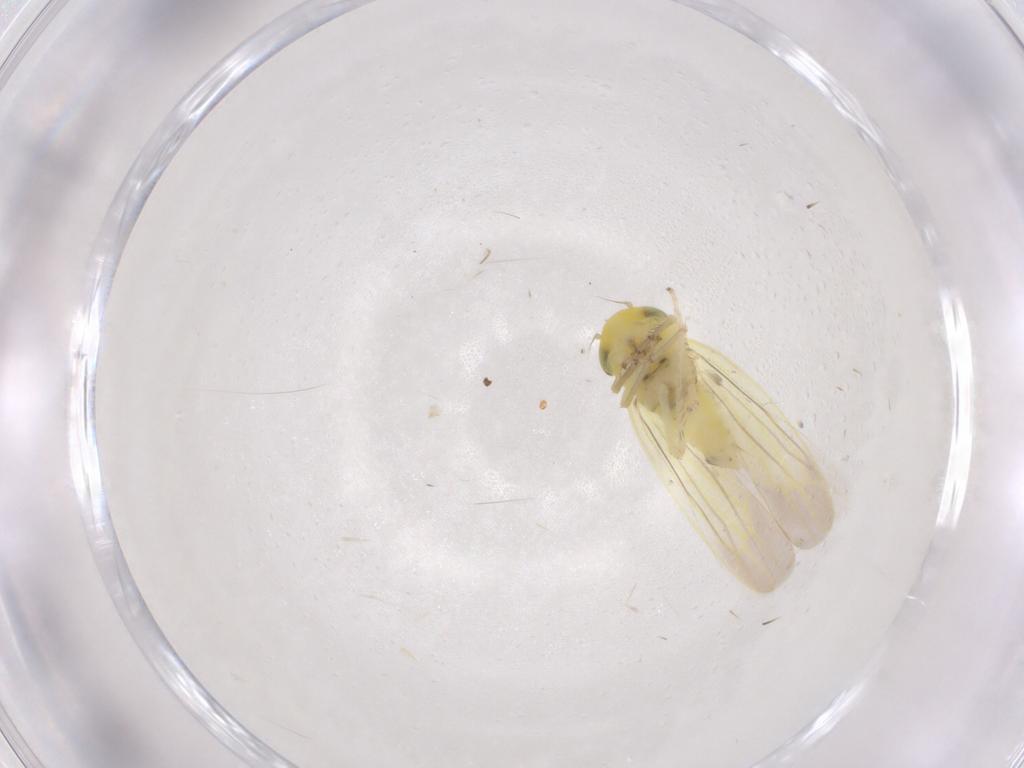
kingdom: Animalia
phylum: Arthropoda
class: Insecta
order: Hemiptera
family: Cicadellidae
